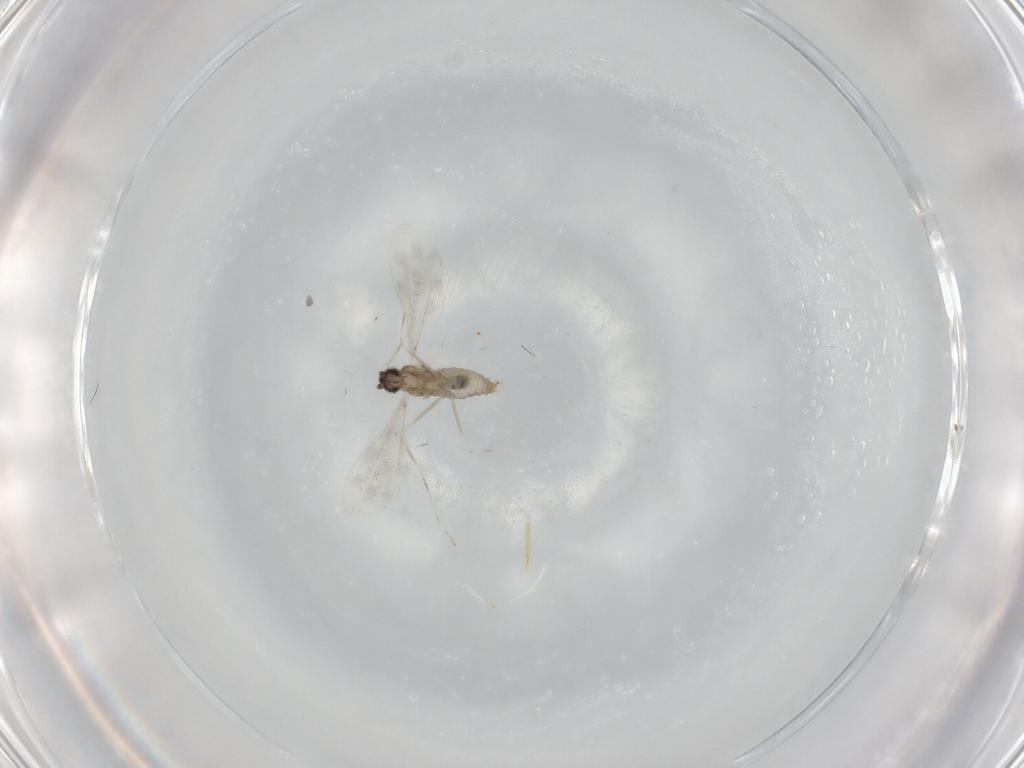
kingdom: Animalia
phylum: Arthropoda
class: Insecta
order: Diptera
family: Cecidomyiidae
